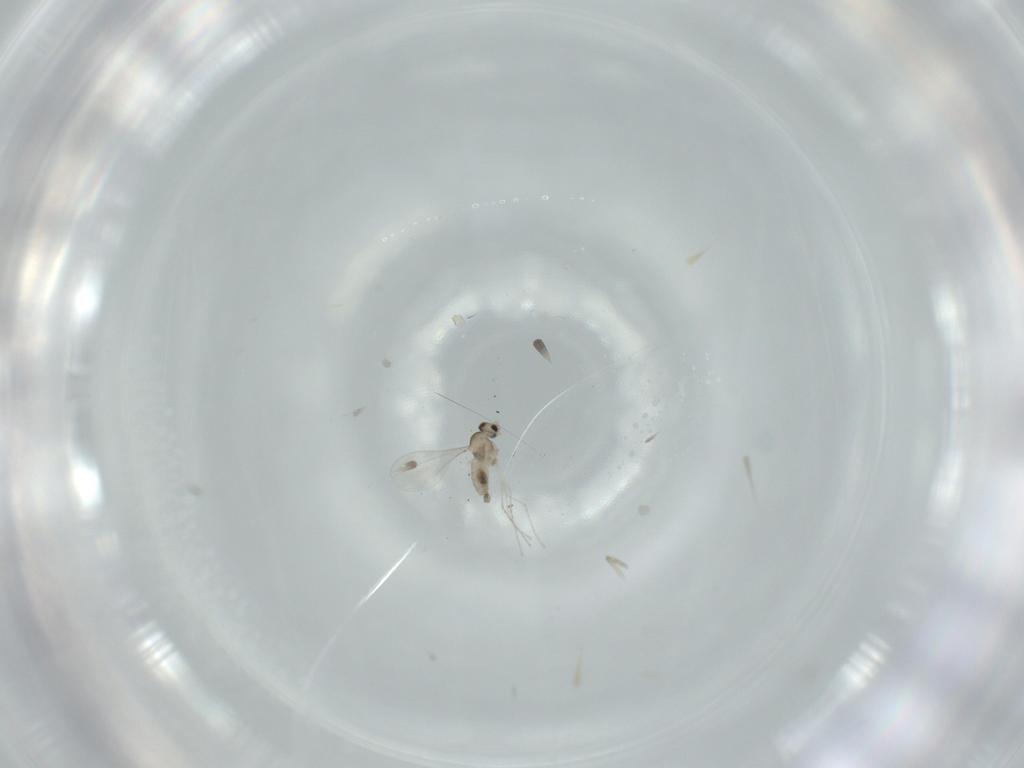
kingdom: Animalia
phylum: Arthropoda
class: Insecta
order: Diptera
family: Cecidomyiidae
